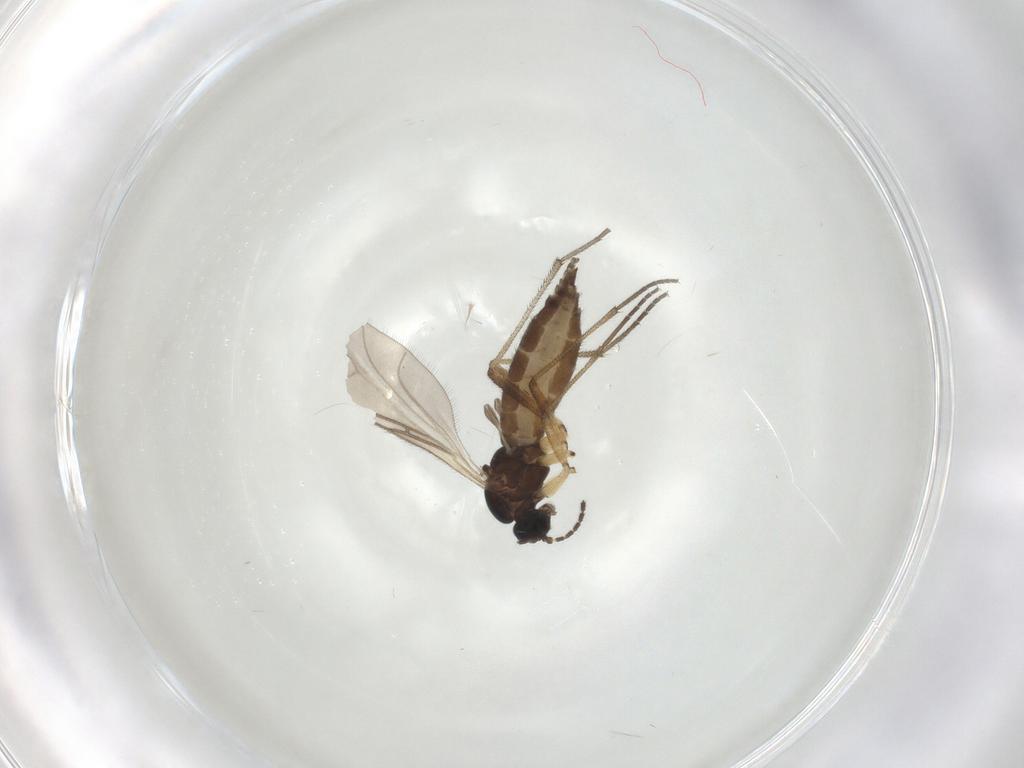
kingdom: Animalia
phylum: Arthropoda
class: Insecta
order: Diptera
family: Sciaridae
